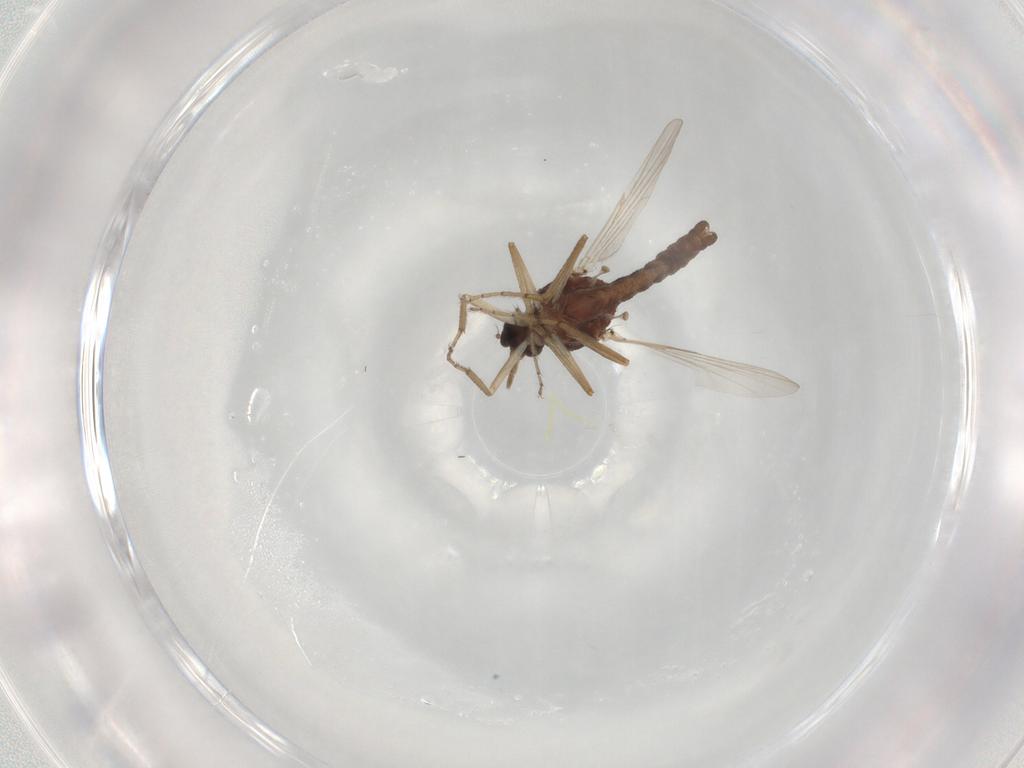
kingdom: Animalia
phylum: Arthropoda
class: Insecta
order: Diptera
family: Ceratopogonidae
